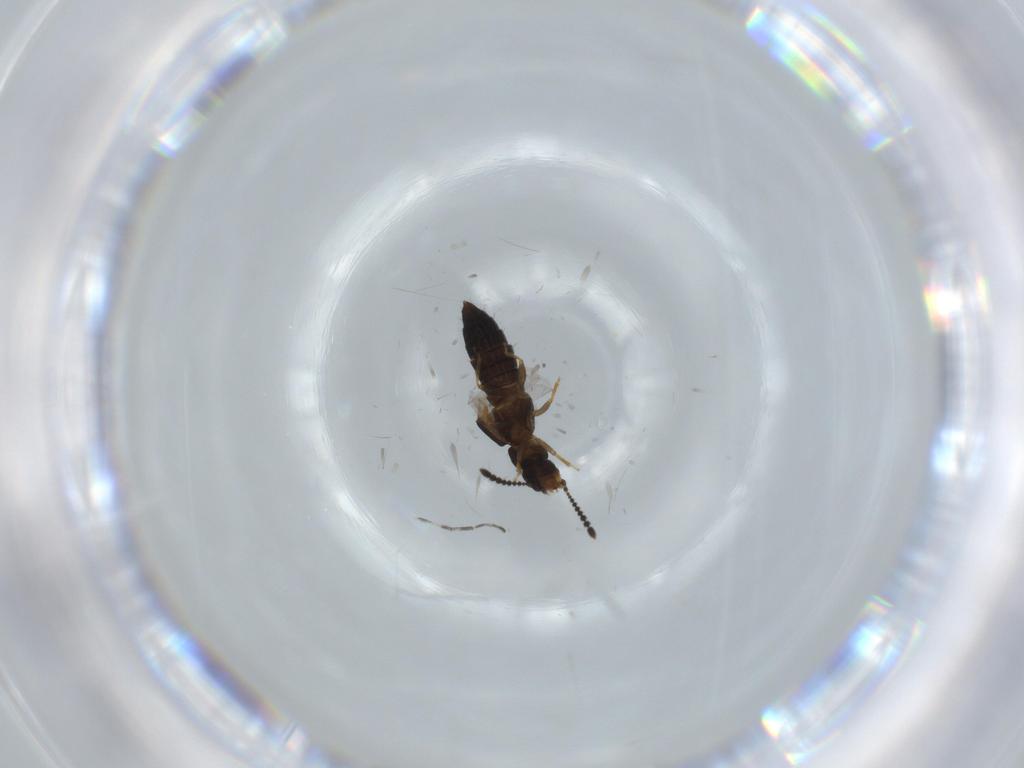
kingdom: Animalia
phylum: Arthropoda
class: Insecta
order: Coleoptera
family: Staphylinidae
